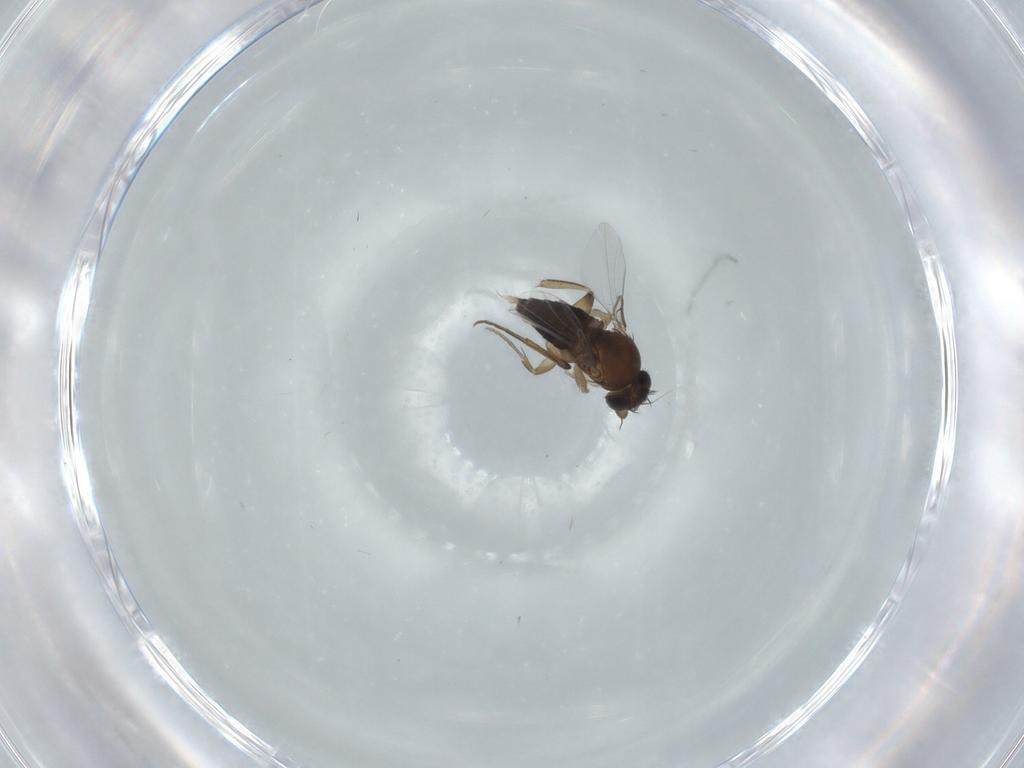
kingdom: Animalia
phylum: Arthropoda
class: Insecta
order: Diptera
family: Phoridae
